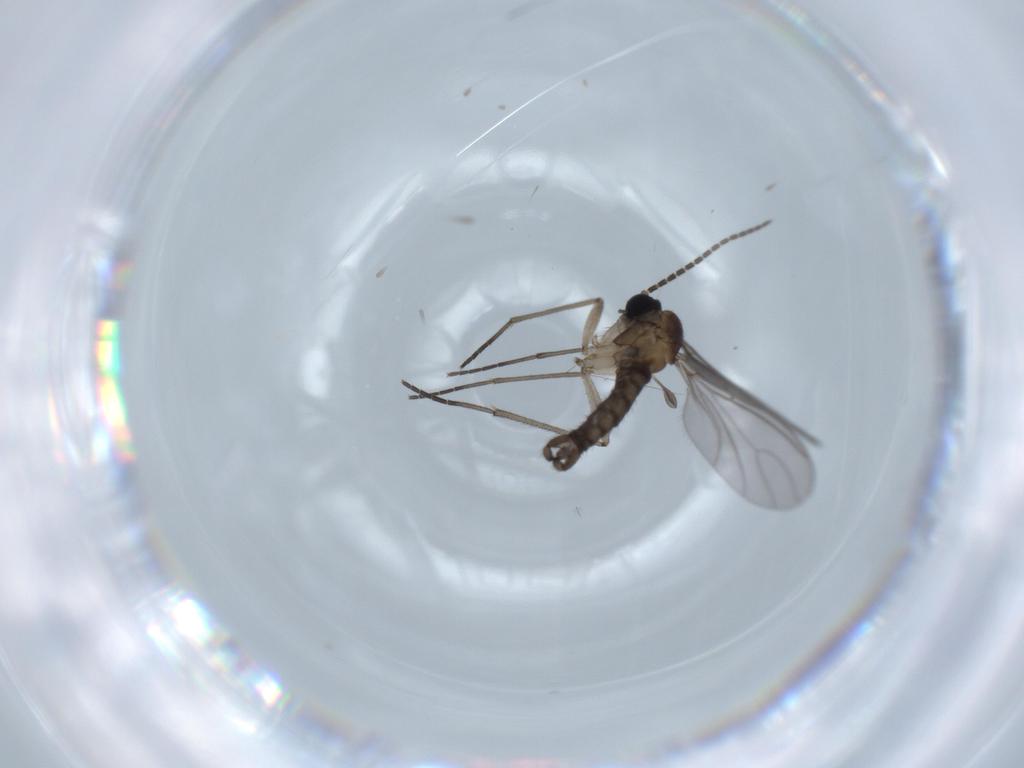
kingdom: Animalia
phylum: Arthropoda
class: Insecta
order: Diptera
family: Sciaridae
